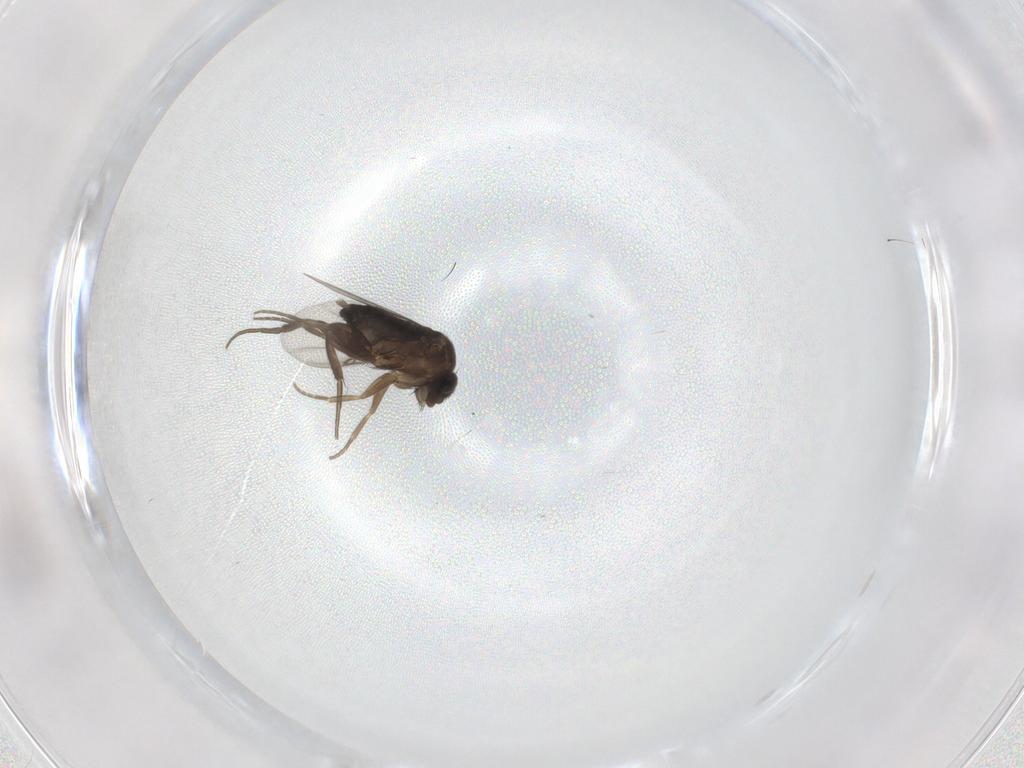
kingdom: Animalia
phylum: Arthropoda
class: Insecta
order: Diptera
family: Phoridae
